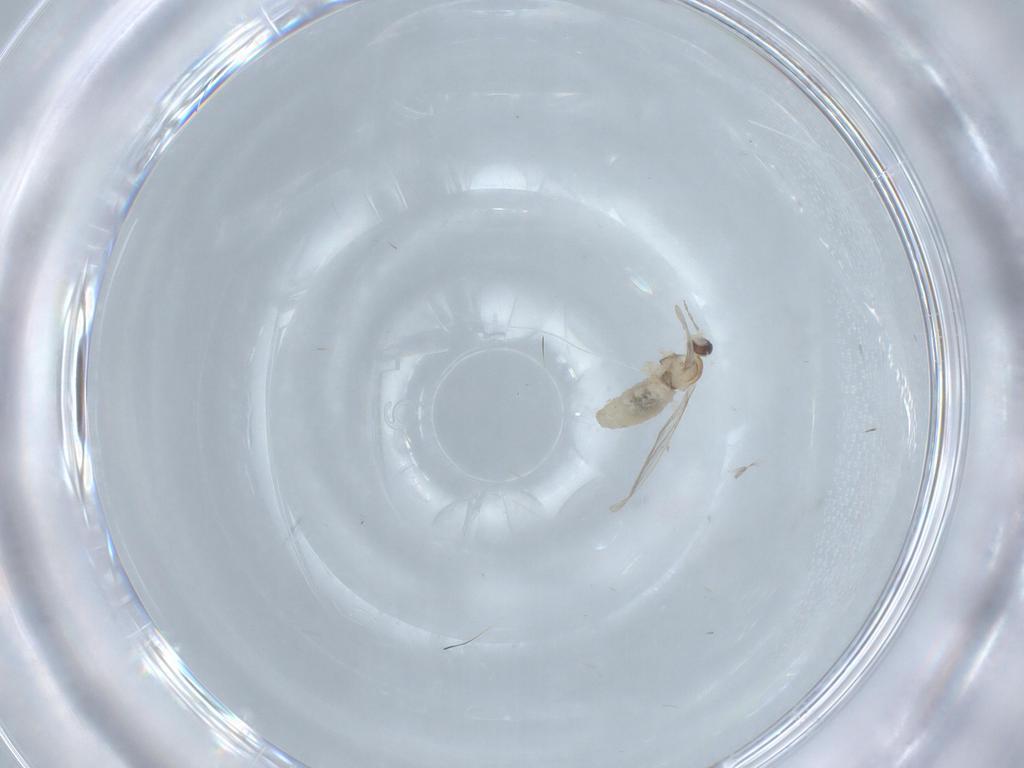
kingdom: Animalia
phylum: Arthropoda
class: Insecta
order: Diptera
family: Cecidomyiidae
